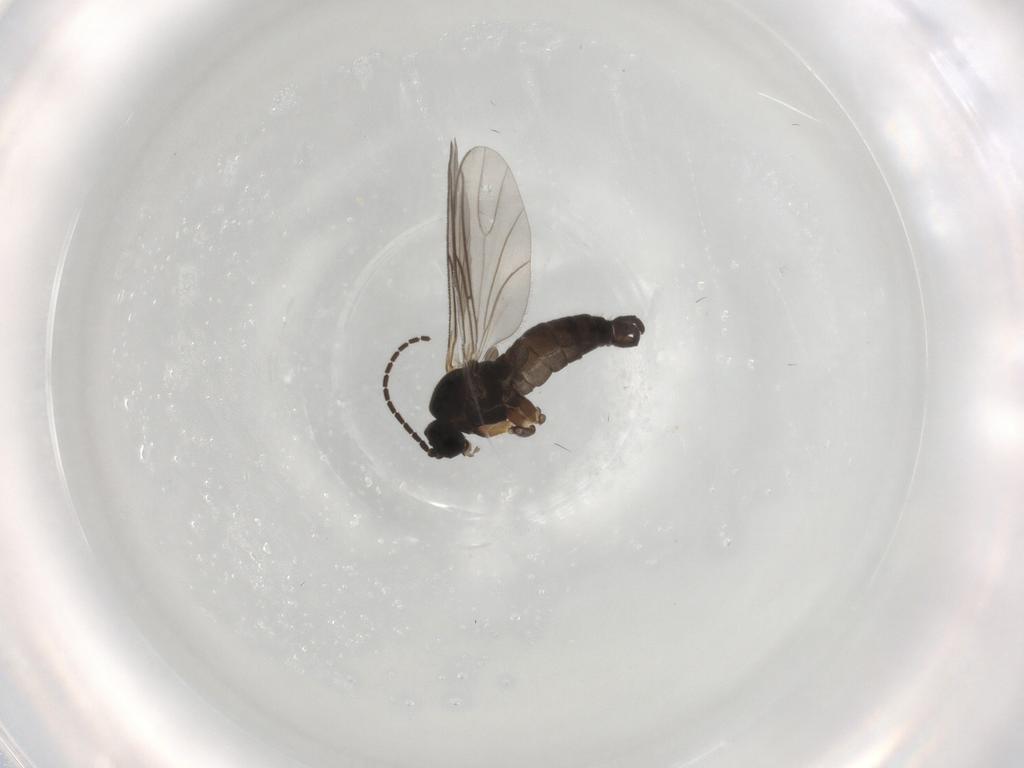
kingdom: Animalia
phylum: Arthropoda
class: Insecta
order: Diptera
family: Sciaridae
